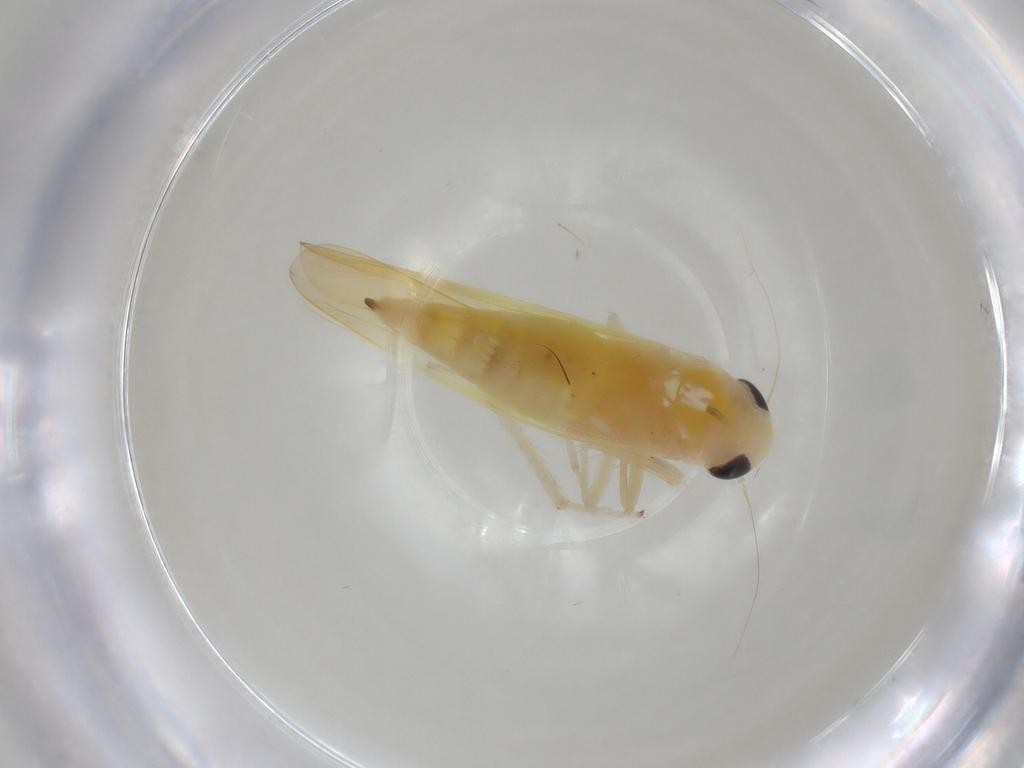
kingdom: Animalia
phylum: Arthropoda
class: Insecta
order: Hemiptera
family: Cicadellidae
